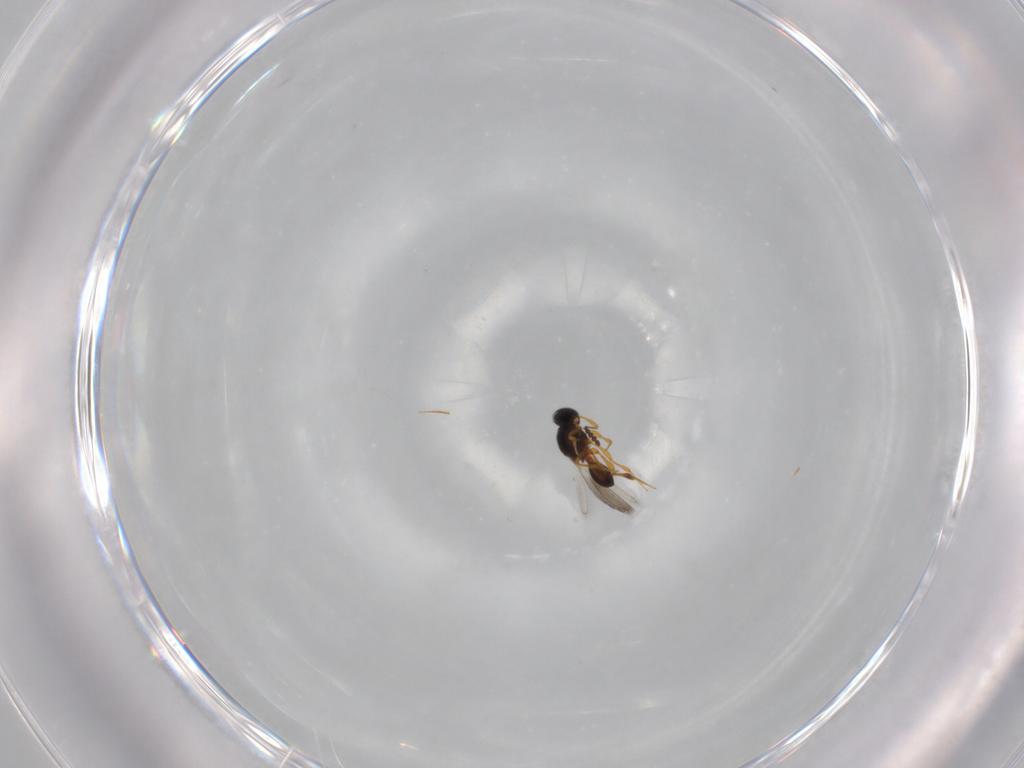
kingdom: Animalia
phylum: Arthropoda
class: Insecta
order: Hymenoptera
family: Platygastridae
